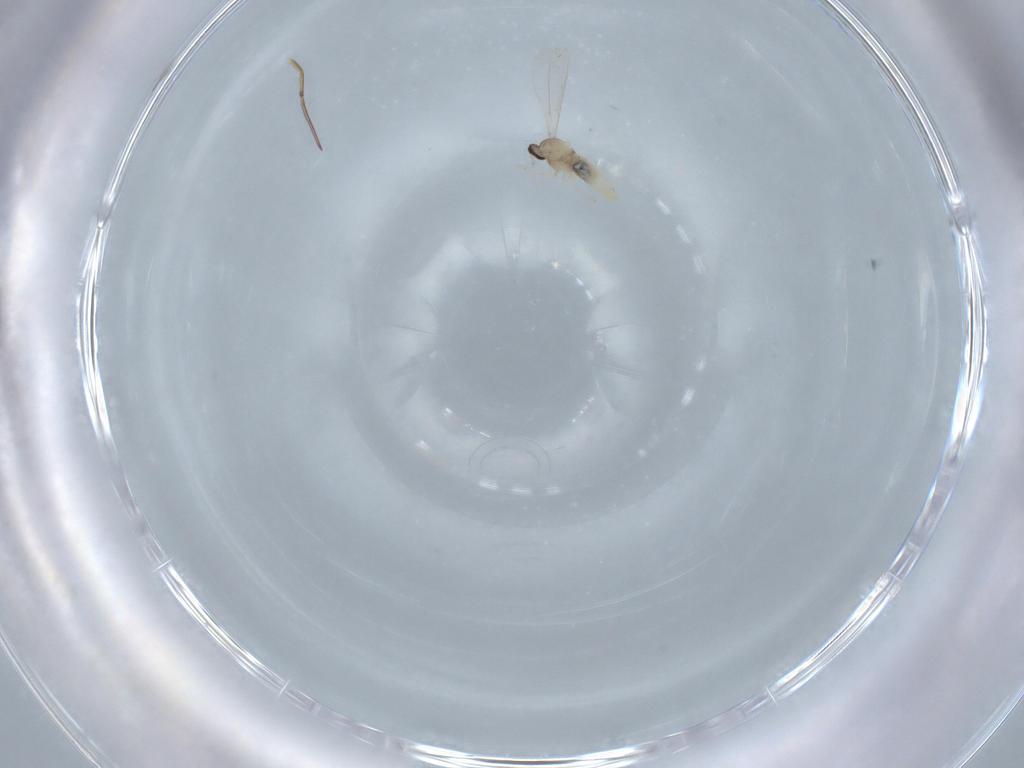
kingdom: Animalia
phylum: Arthropoda
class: Insecta
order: Diptera
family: Cecidomyiidae
